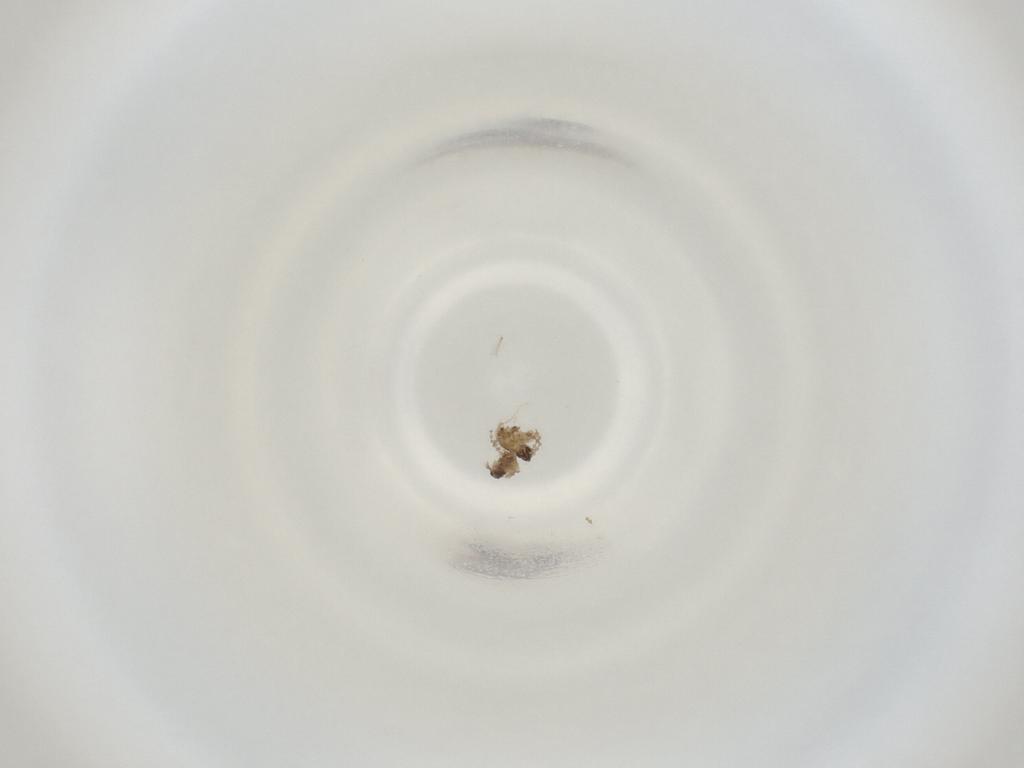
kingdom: Animalia
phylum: Arthropoda
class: Insecta
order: Diptera
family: Cecidomyiidae
